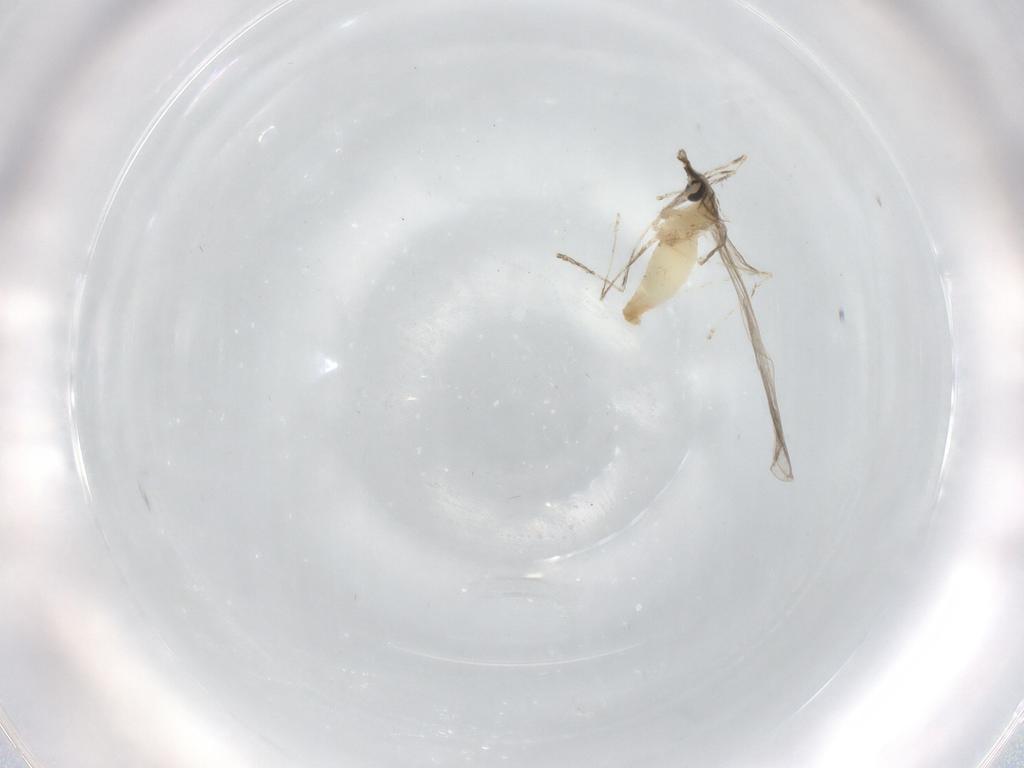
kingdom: Animalia
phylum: Arthropoda
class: Insecta
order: Diptera
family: Cecidomyiidae
